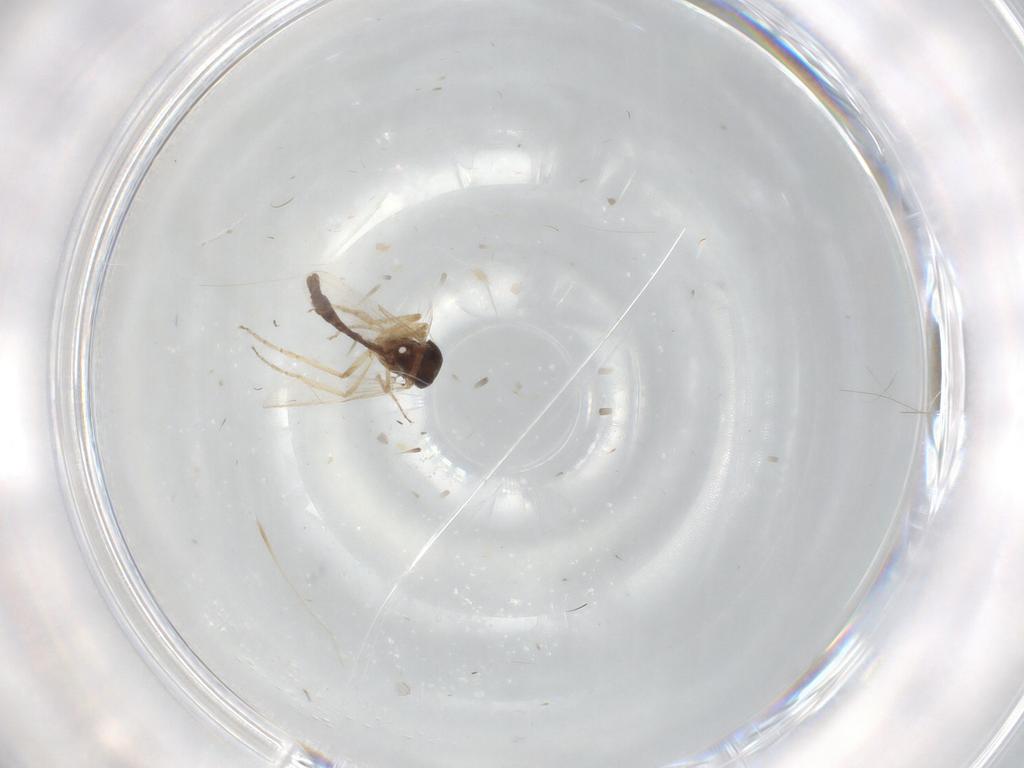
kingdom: Animalia
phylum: Arthropoda
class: Insecta
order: Diptera
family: Ceratopogonidae
